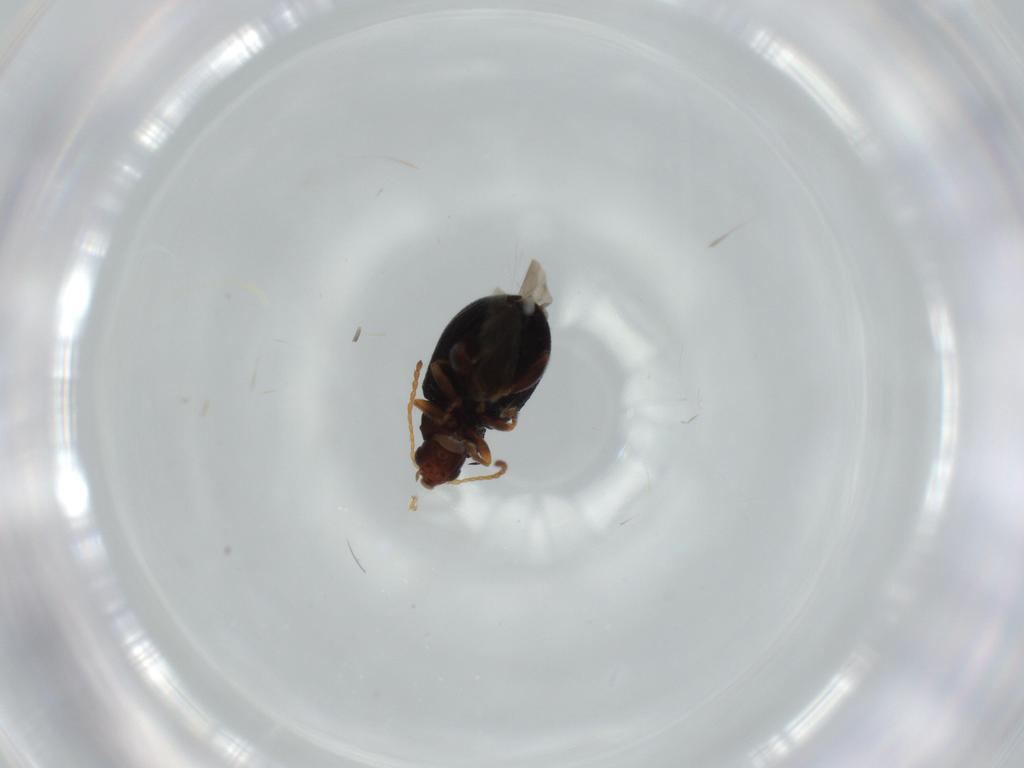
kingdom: Animalia
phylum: Arthropoda
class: Insecta
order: Coleoptera
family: Chrysomelidae
